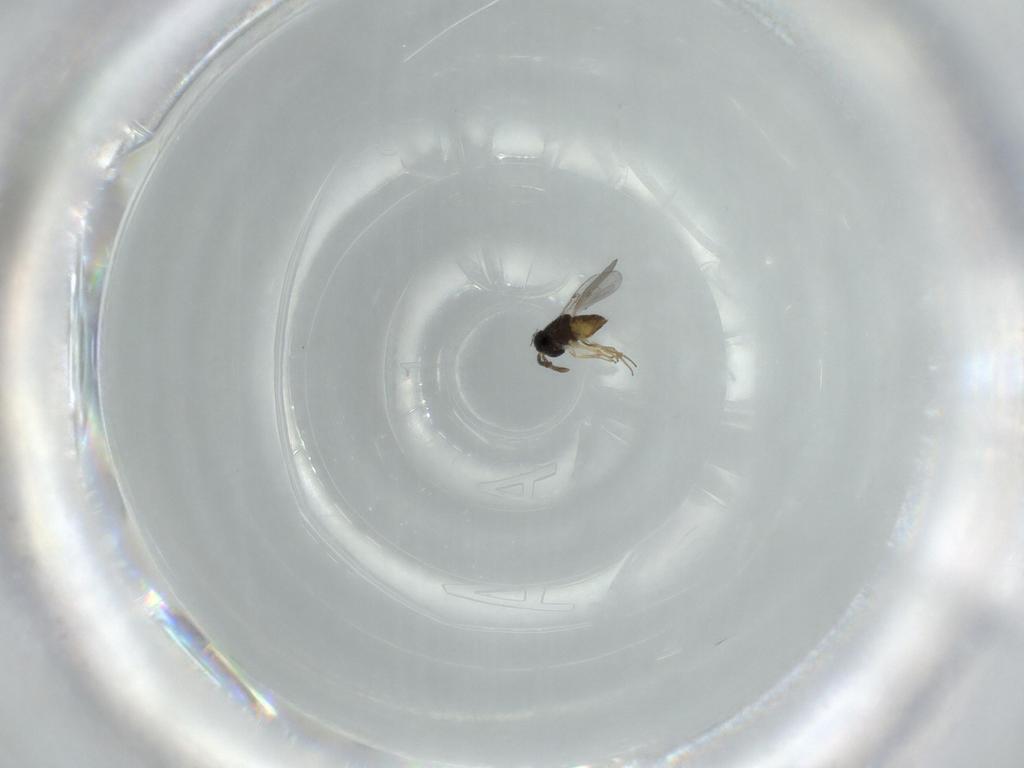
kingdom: Animalia
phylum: Arthropoda
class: Insecta
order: Hymenoptera
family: Encyrtidae
